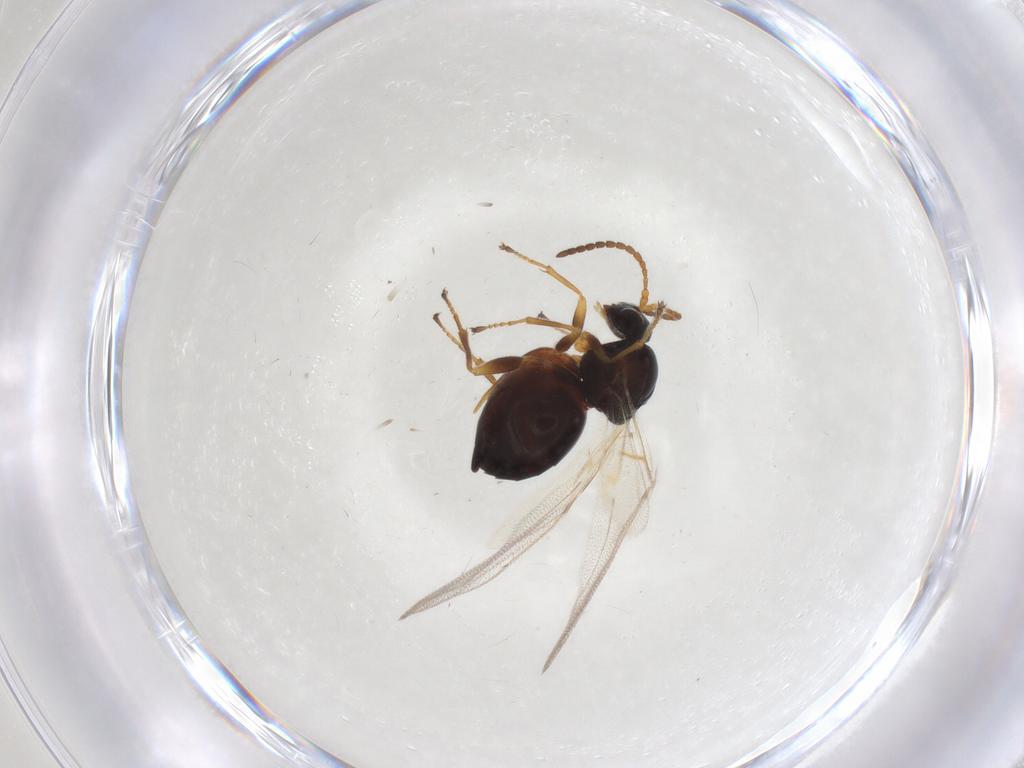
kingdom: Animalia
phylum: Arthropoda
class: Insecta
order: Hymenoptera
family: Cynipidae
